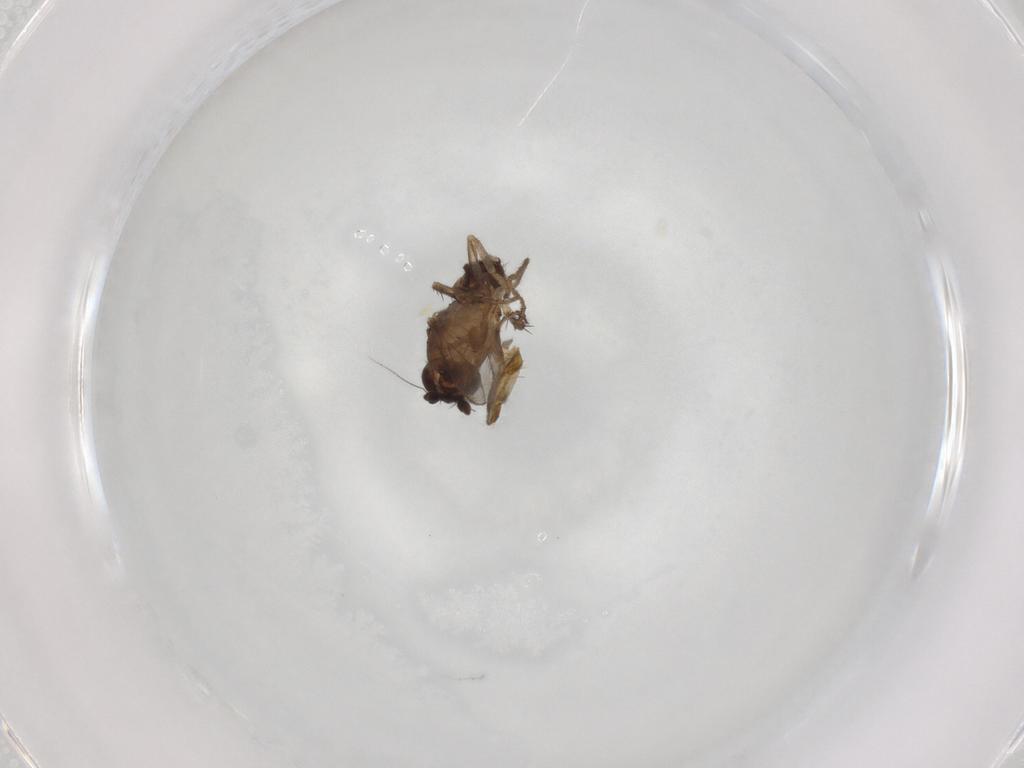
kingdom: Animalia
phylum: Arthropoda
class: Insecta
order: Diptera
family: Sphaeroceridae
